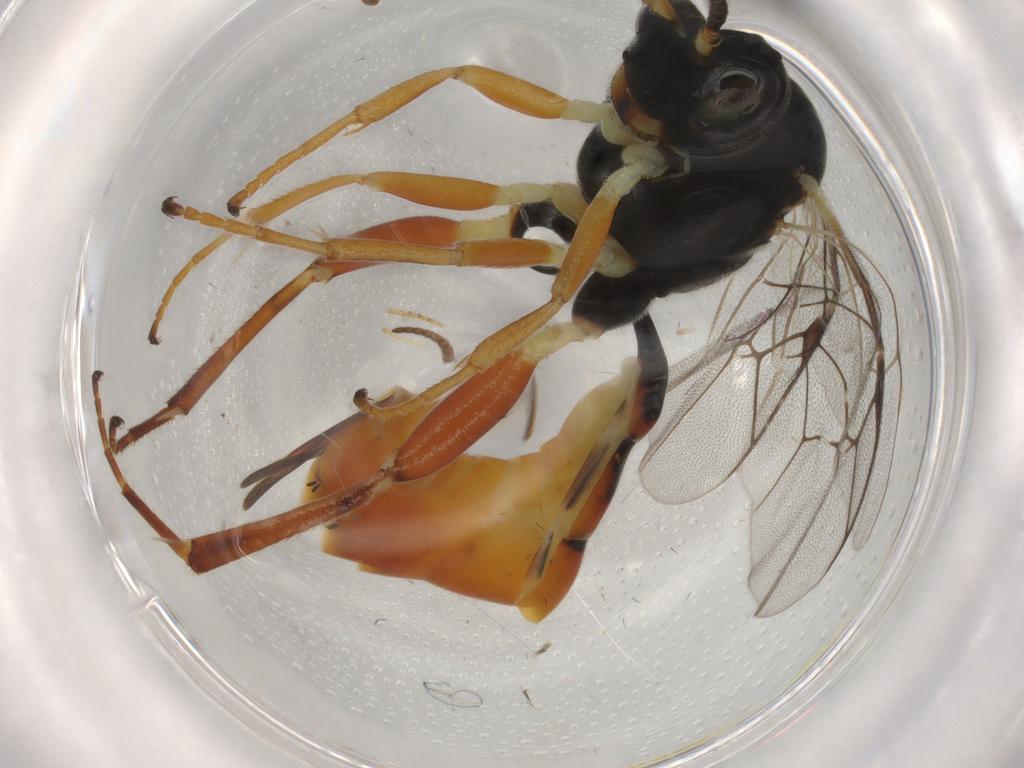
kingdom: Animalia
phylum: Arthropoda
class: Insecta
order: Hymenoptera
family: Ichneumonidae
